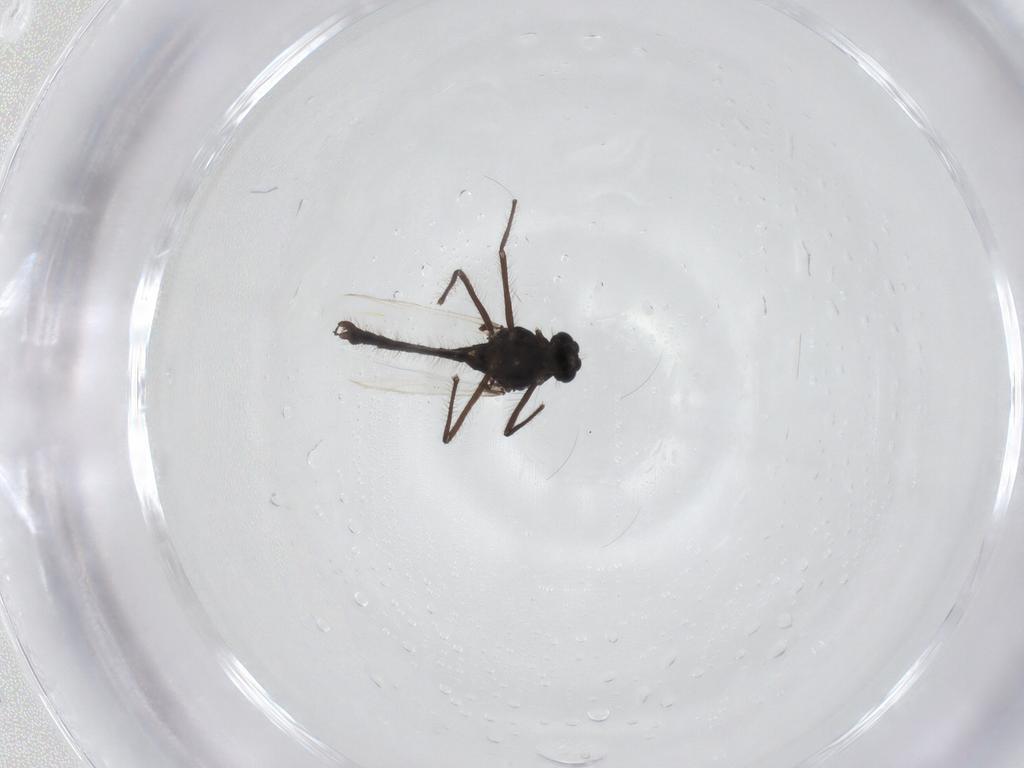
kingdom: Animalia
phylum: Arthropoda
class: Insecta
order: Diptera
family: Chironomidae
